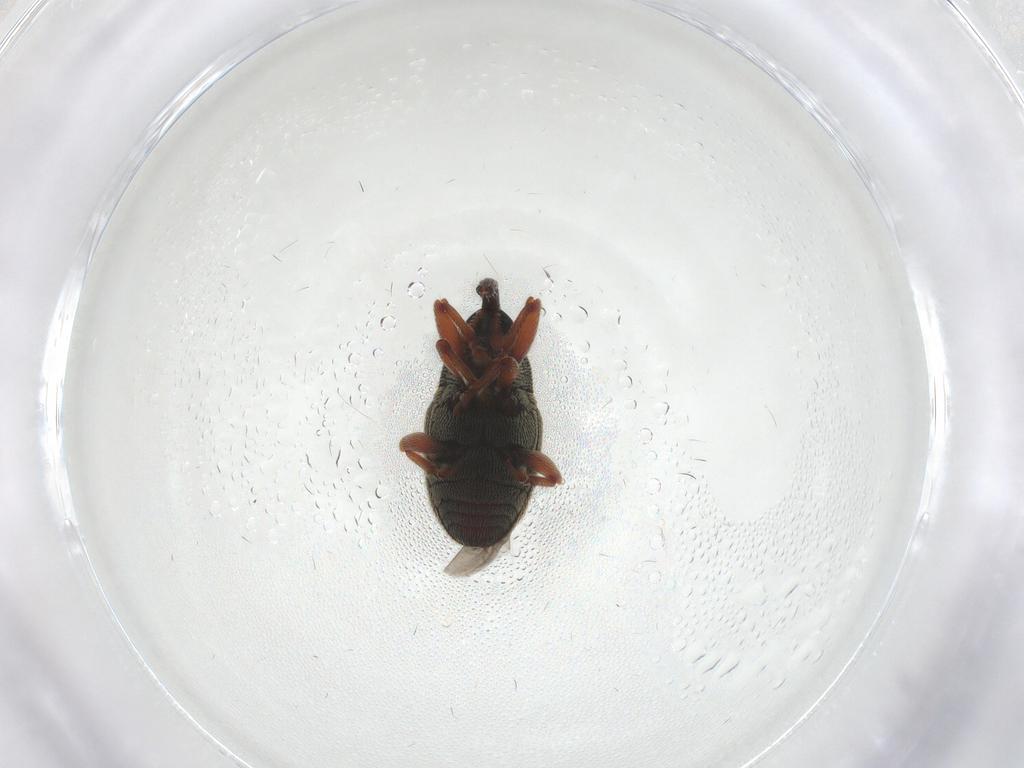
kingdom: Animalia
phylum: Arthropoda
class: Insecta
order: Coleoptera
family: Curculionidae
